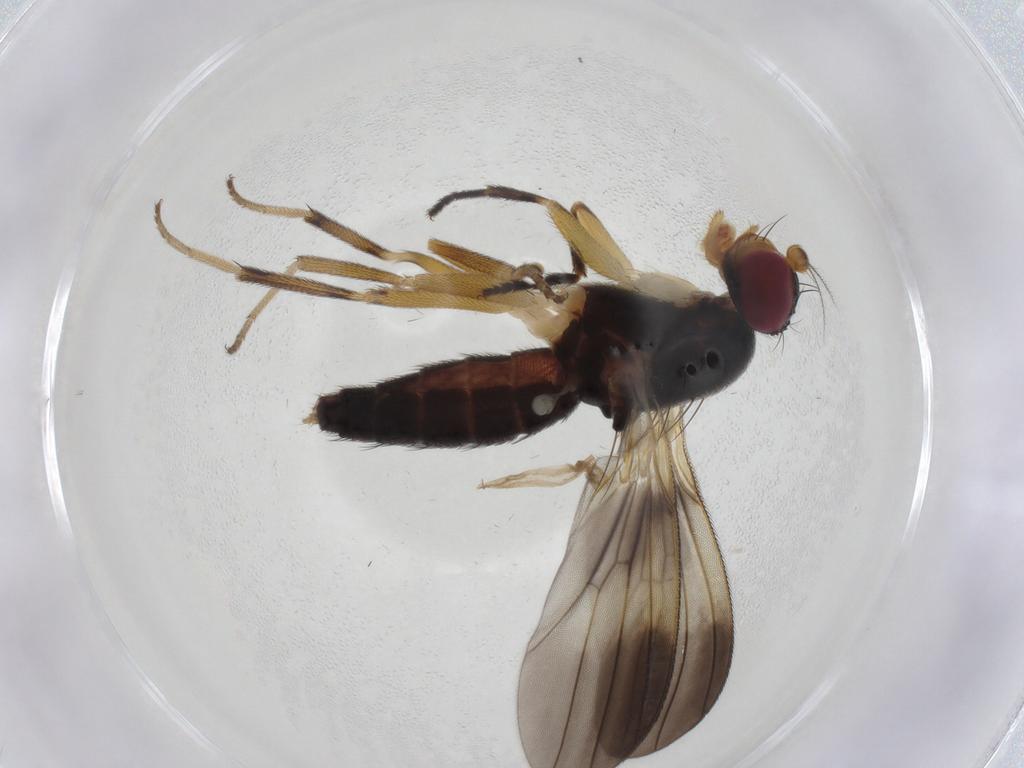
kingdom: Animalia
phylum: Arthropoda
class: Insecta
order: Diptera
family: Clusiidae
